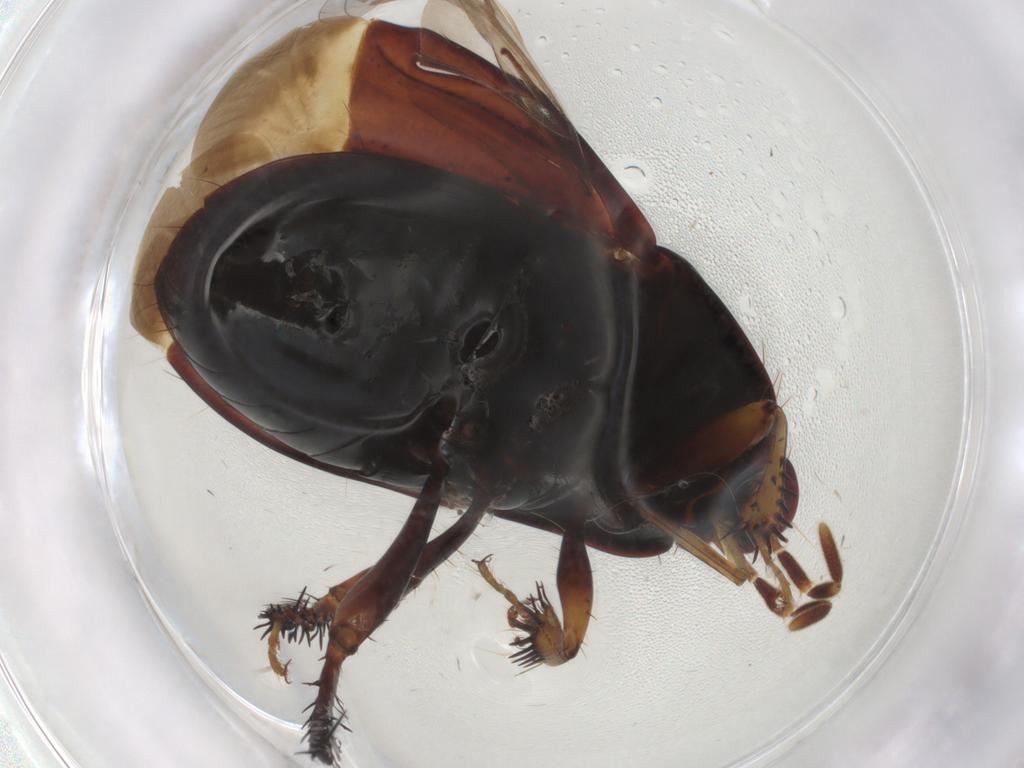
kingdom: Animalia
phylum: Arthropoda
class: Insecta
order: Hemiptera
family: Cydnidae
